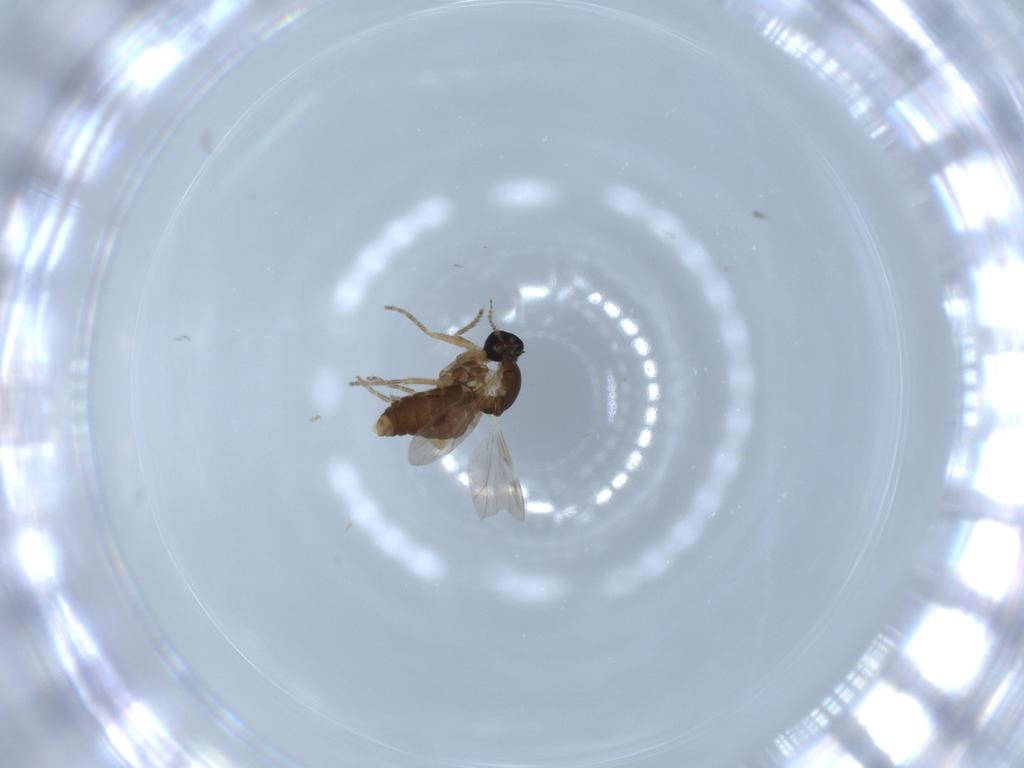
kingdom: Animalia
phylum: Arthropoda
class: Insecta
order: Diptera
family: Ceratopogonidae
